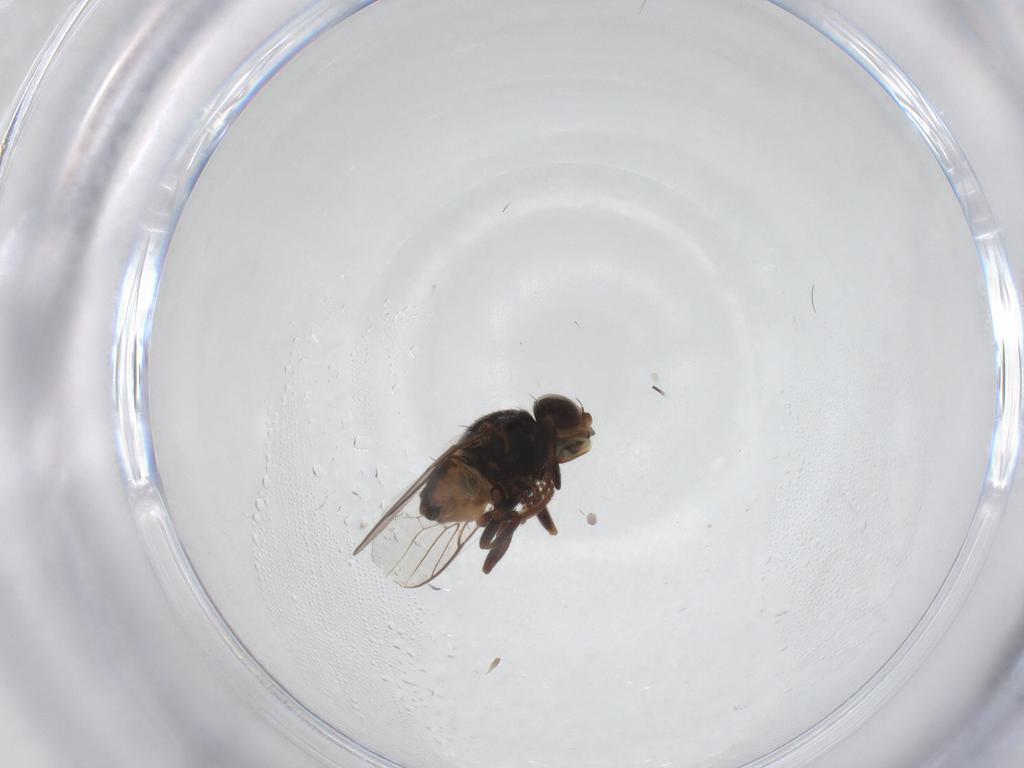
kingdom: Animalia
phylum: Arthropoda
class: Insecta
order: Diptera
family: Chloropidae
